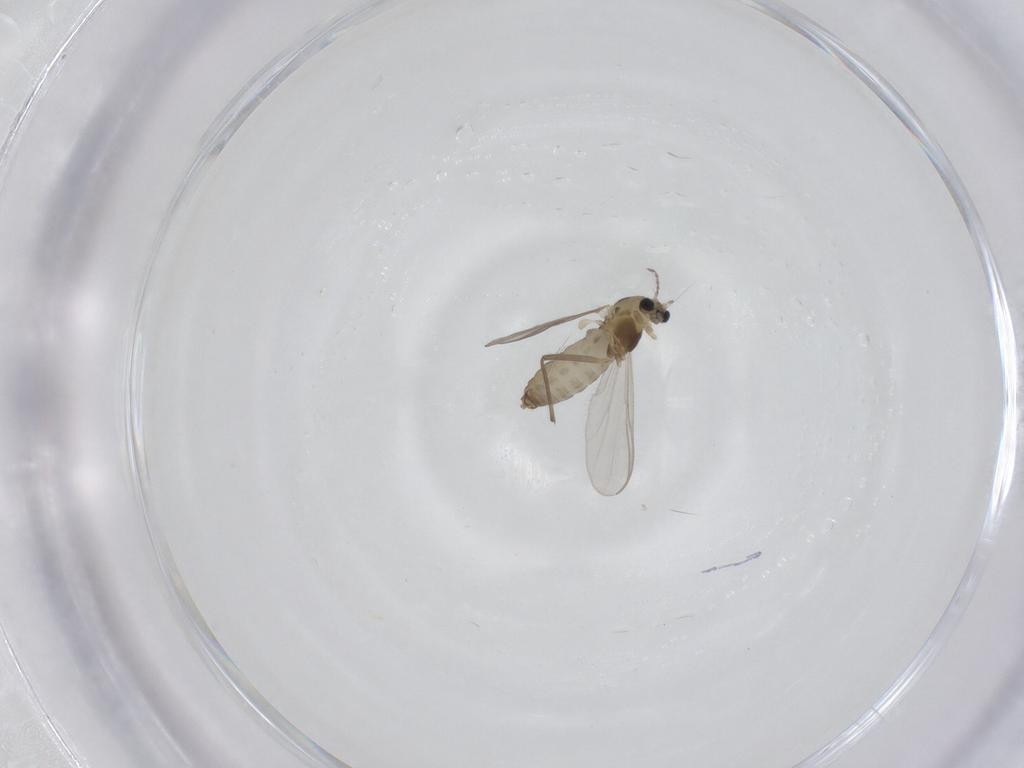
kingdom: Animalia
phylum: Arthropoda
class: Insecta
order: Diptera
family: Chironomidae
